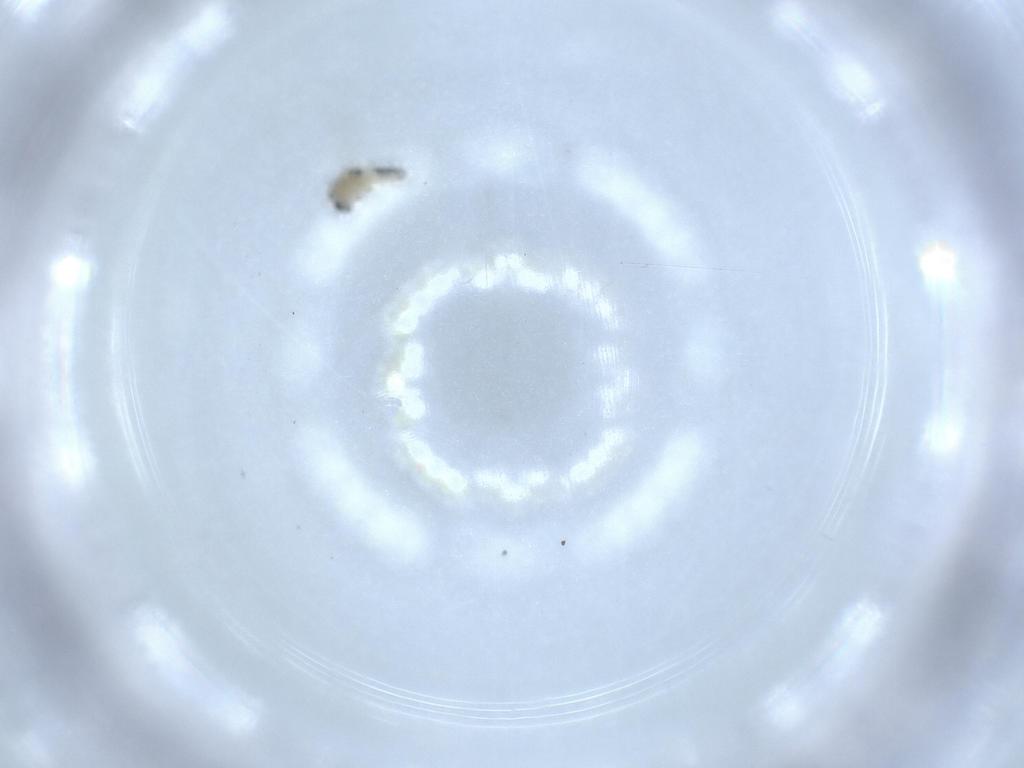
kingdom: Animalia
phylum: Arthropoda
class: Insecta
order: Diptera
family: Chironomidae
